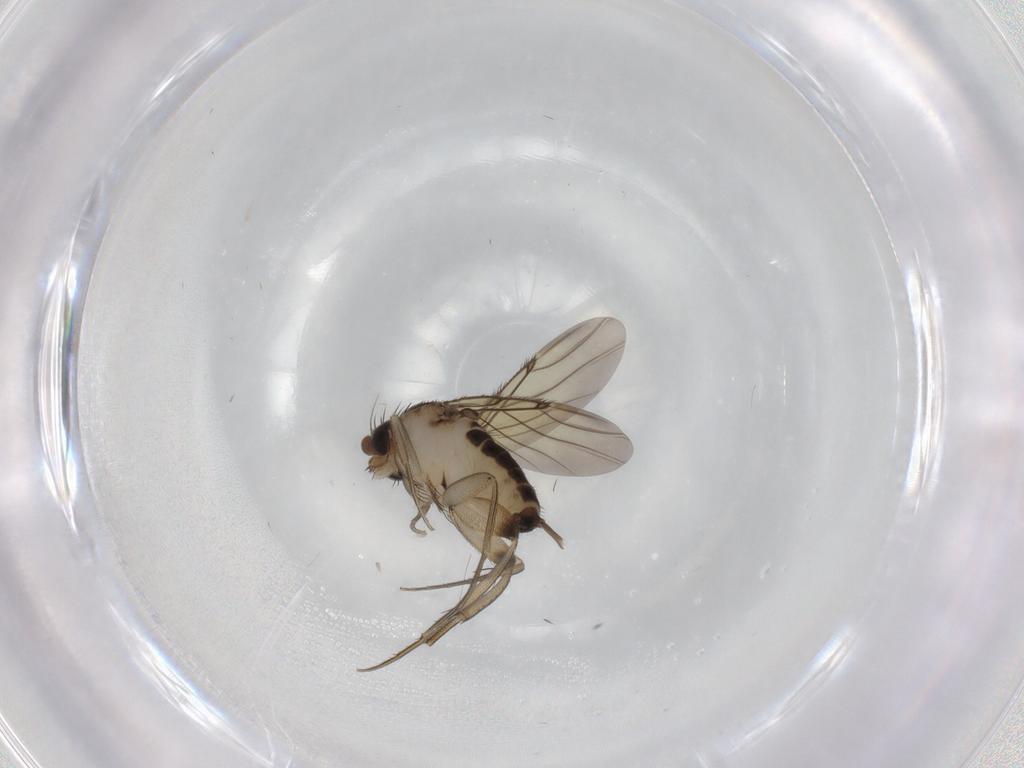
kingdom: Animalia
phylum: Arthropoda
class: Insecta
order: Diptera
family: Phoridae
